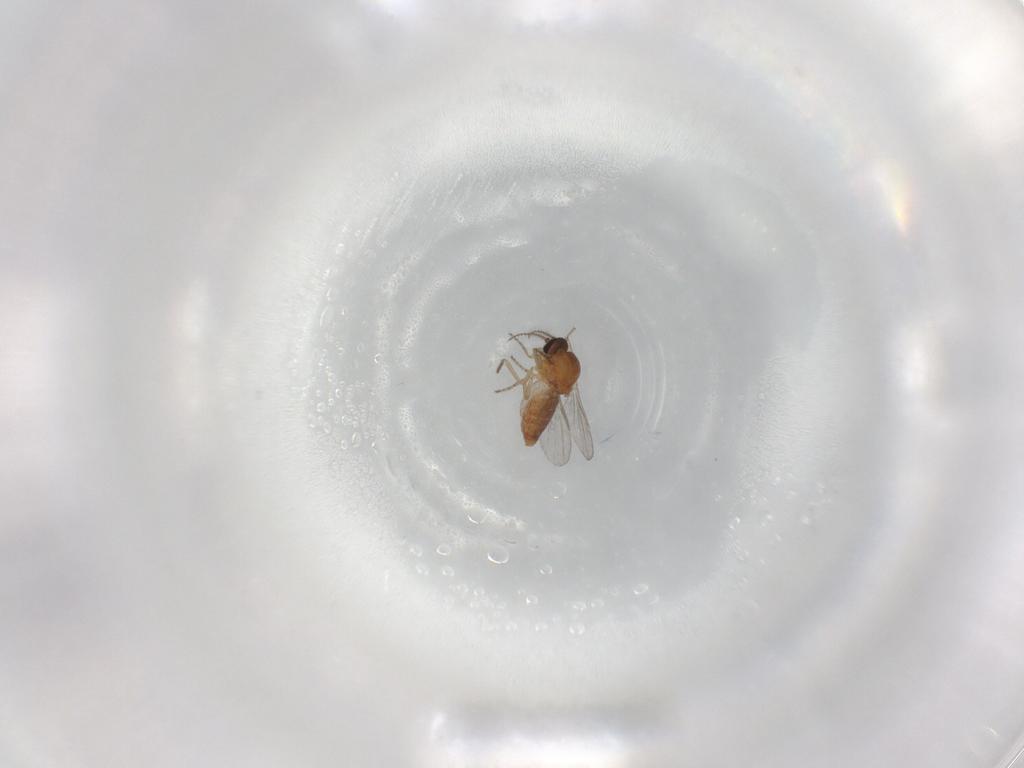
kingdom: Animalia
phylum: Arthropoda
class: Insecta
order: Diptera
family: Ceratopogonidae
